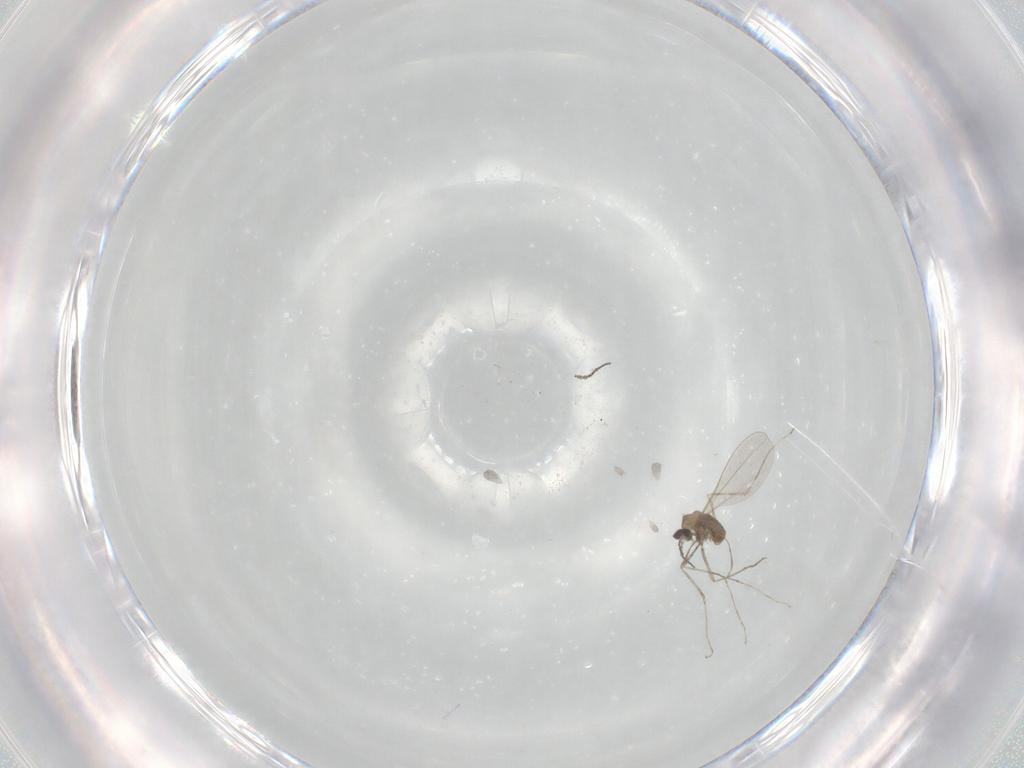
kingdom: Animalia
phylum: Arthropoda
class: Insecta
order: Diptera
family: Cecidomyiidae
